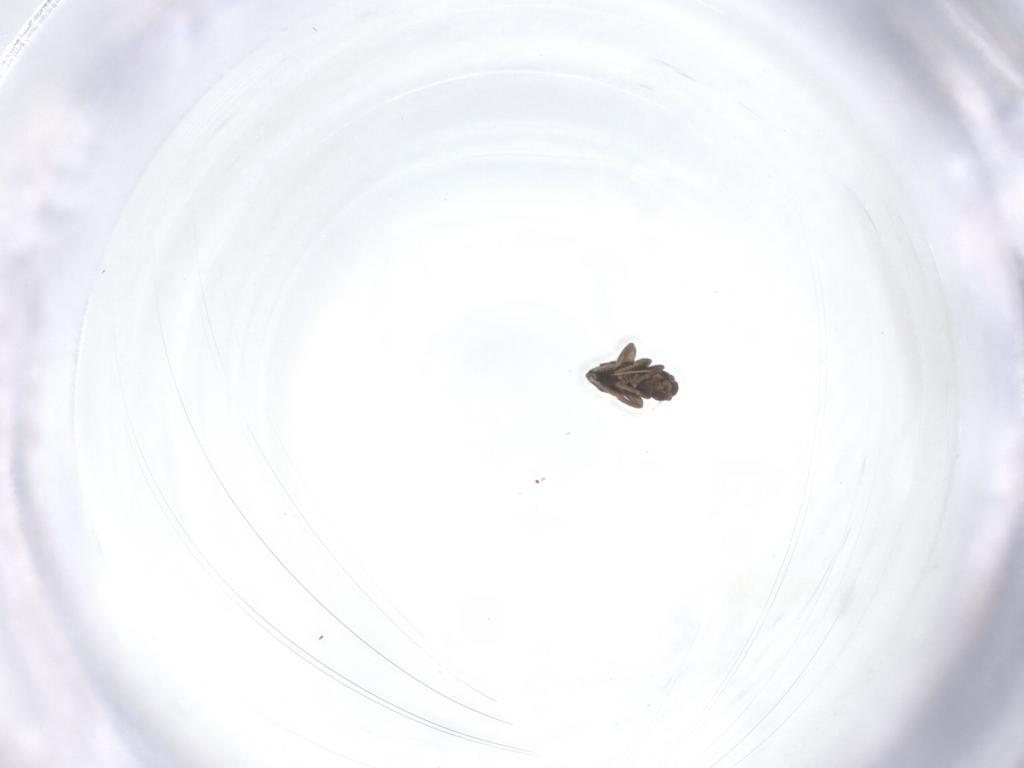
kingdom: Animalia
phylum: Arthropoda
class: Insecta
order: Diptera
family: Phoridae
